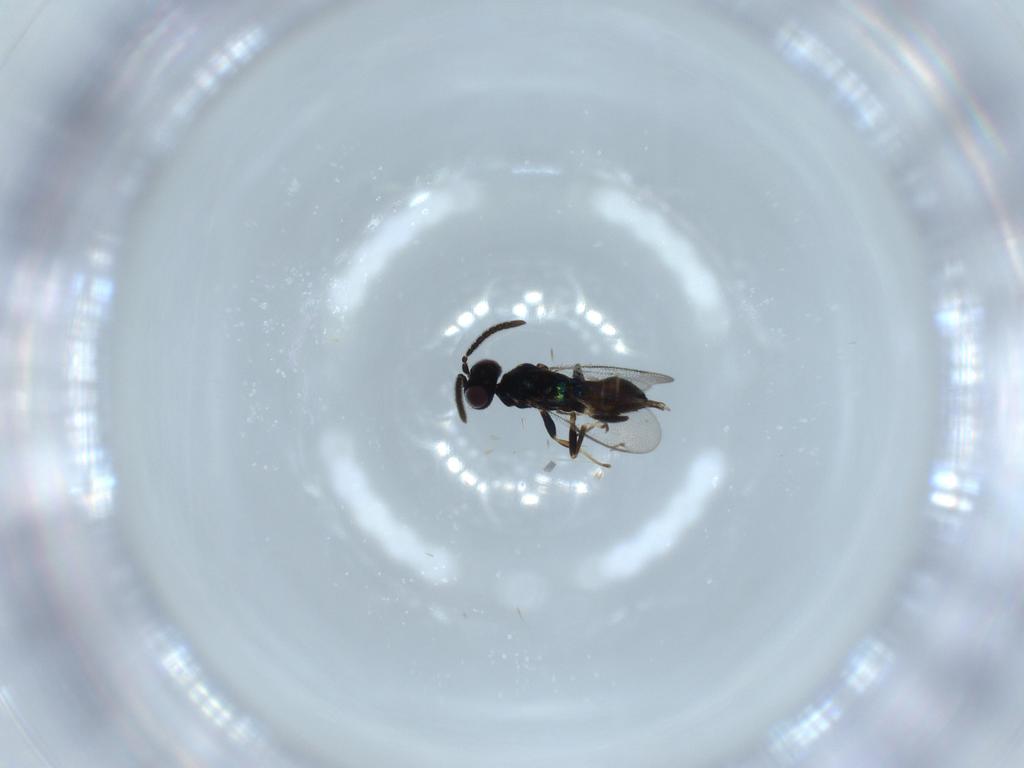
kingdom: Animalia
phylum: Arthropoda
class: Insecta
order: Hymenoptera
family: Eupelmidae
